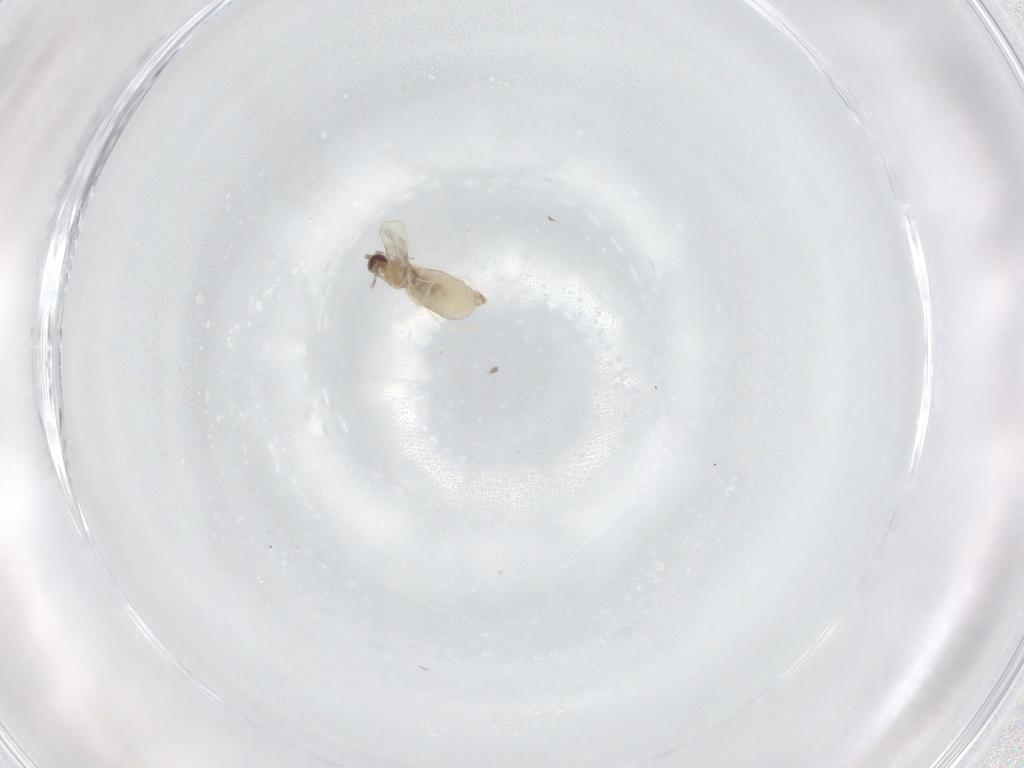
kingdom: Animalia
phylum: Arthropoda
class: Insecta
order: Diptera
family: Cecidomyiidae
